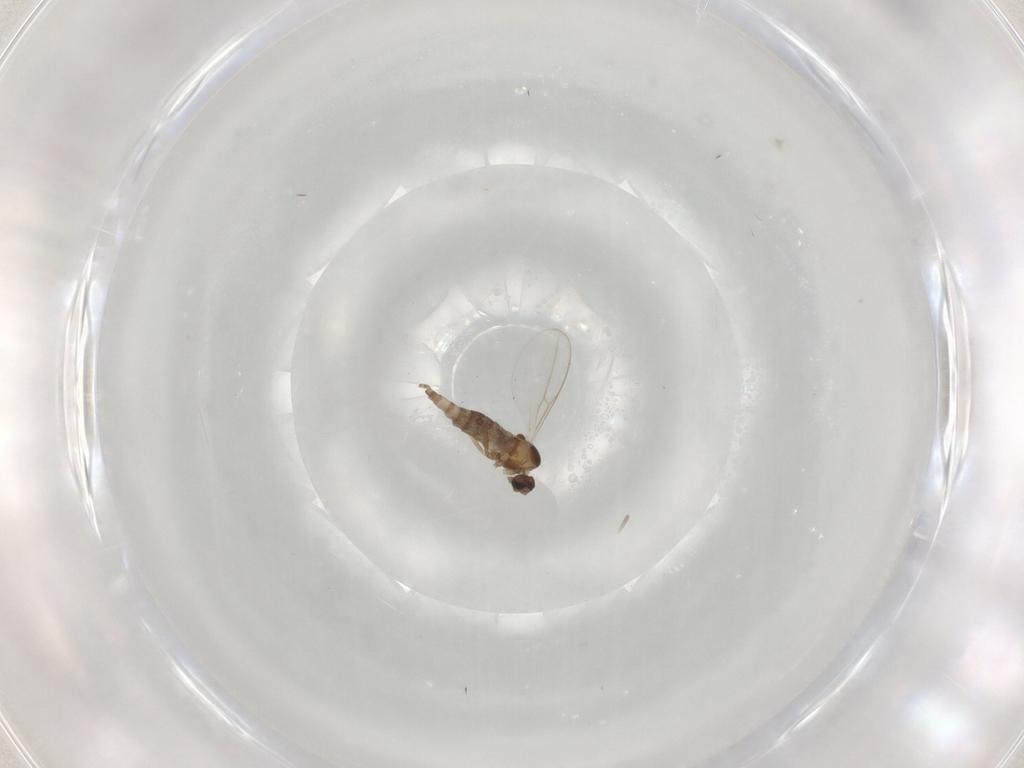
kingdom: Animalia
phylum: Arthropoda
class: Insecta
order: Diptera
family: Cecidomyiidae
